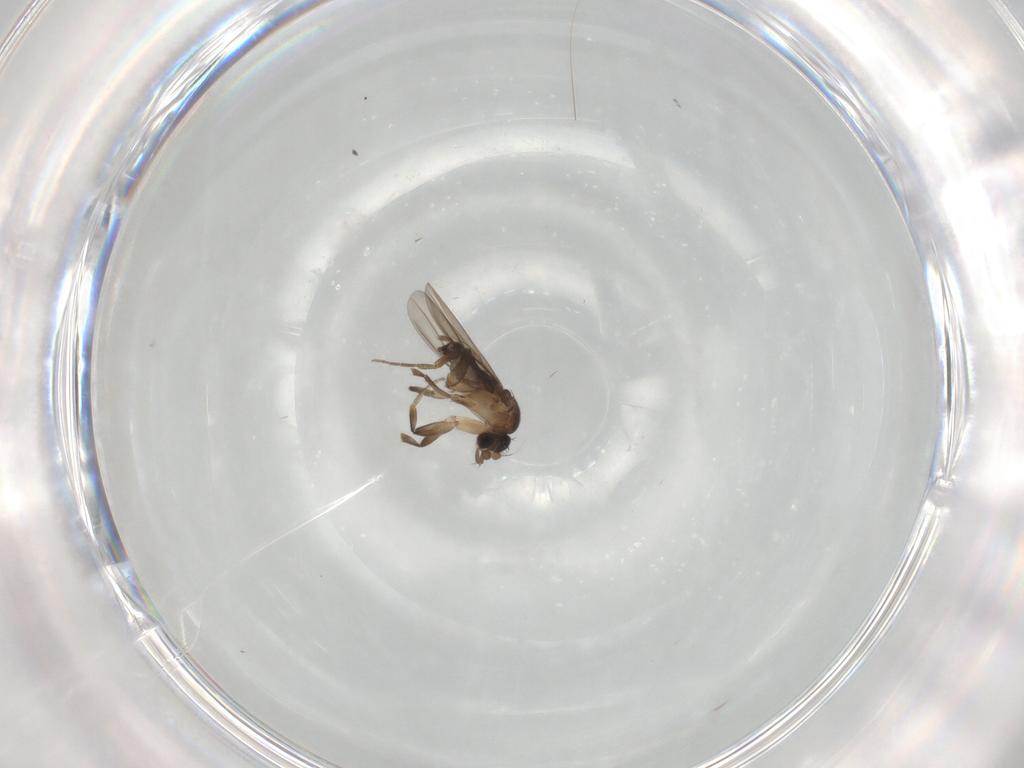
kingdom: Animalia
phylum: Arthropoda
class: Insecta
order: Diptera
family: Phoridae
